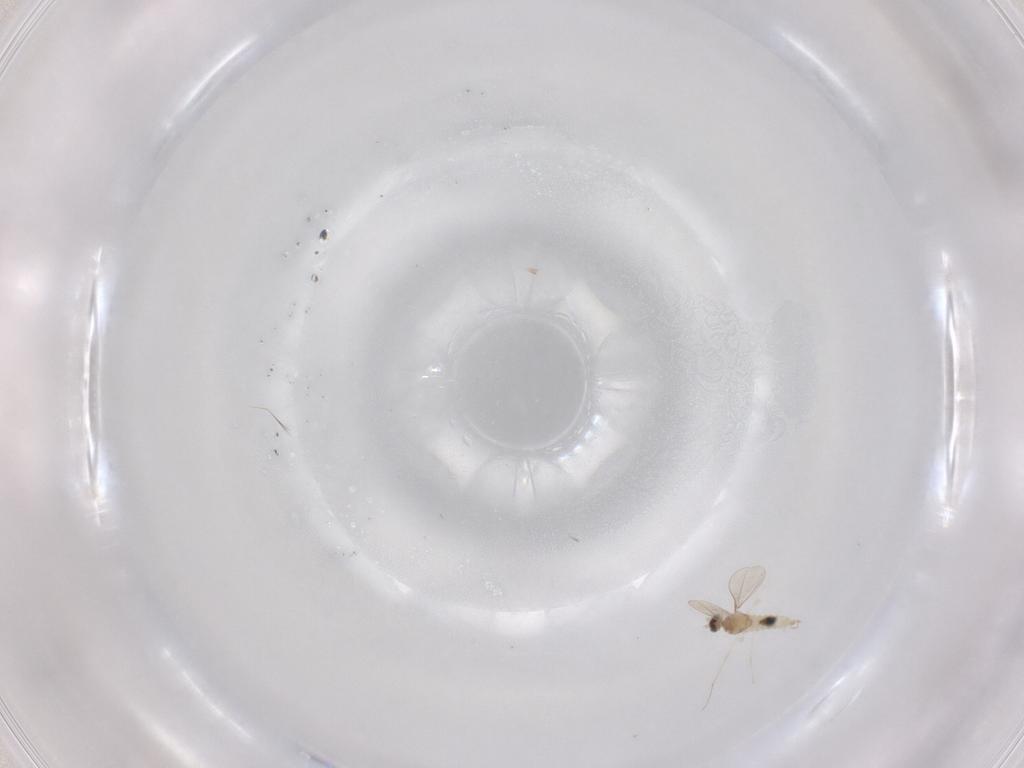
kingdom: Animalia
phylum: Arthropoda
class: Insecta
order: Diptera
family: Cecidomyiidae
